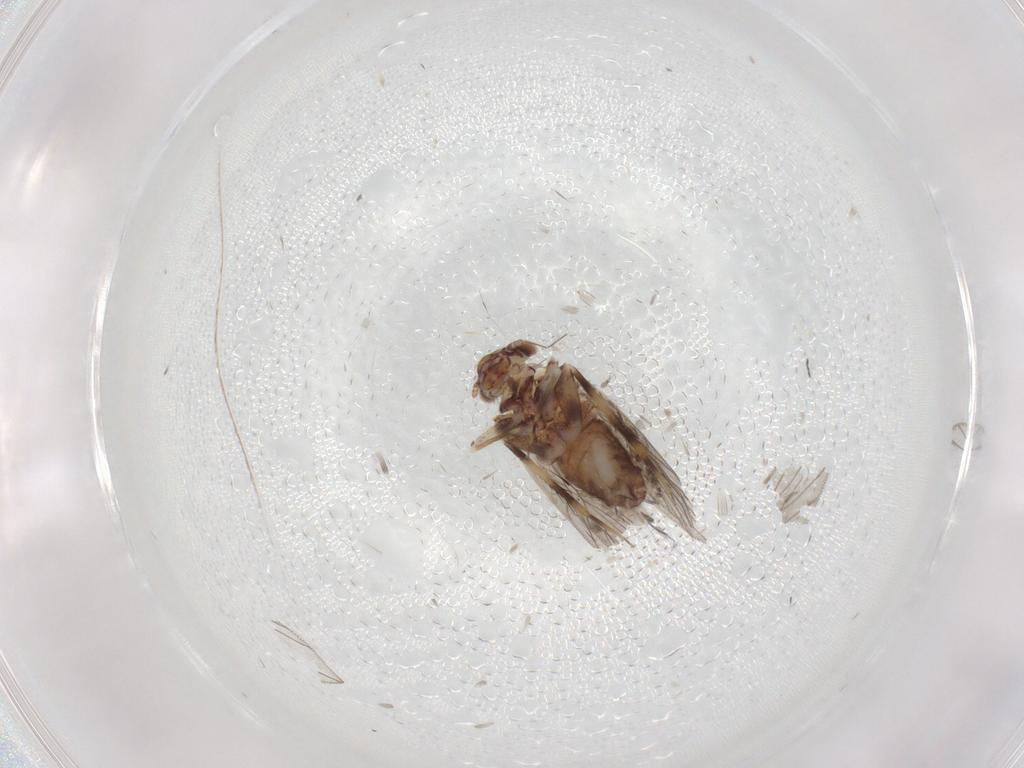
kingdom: Animalia
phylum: Arthropoda
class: Insecta
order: Psocodea
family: Lepidopsocidae
